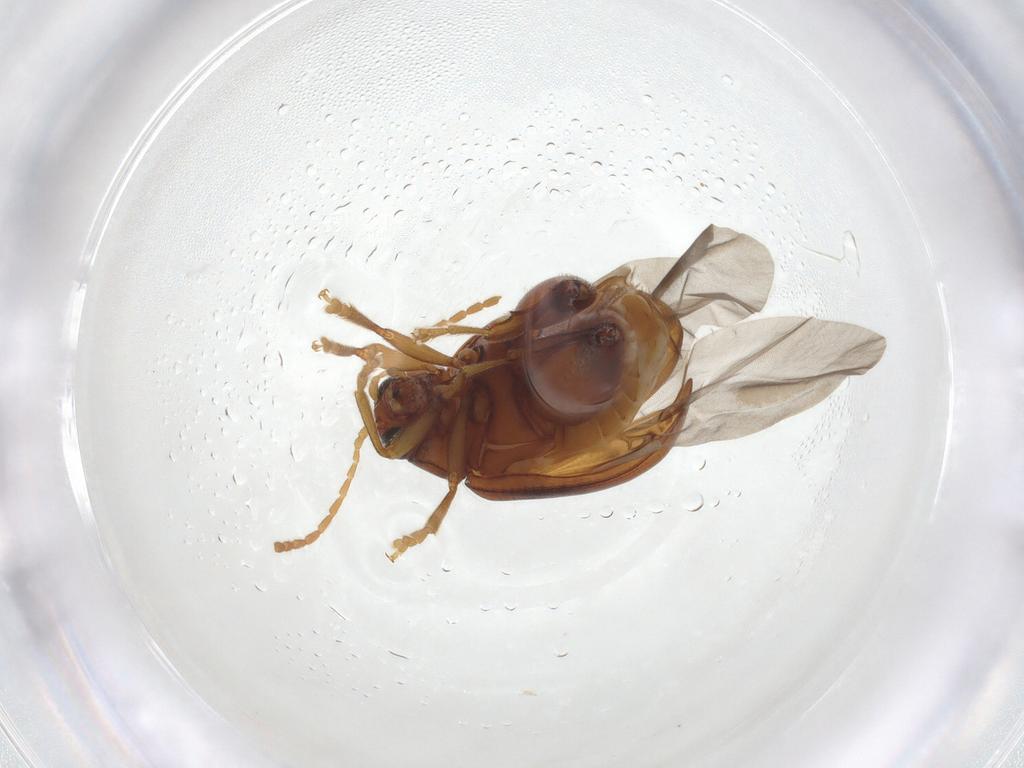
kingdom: Animalia
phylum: Arthropoda
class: Insecta
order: Coleoptera
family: Chrysomelidae
